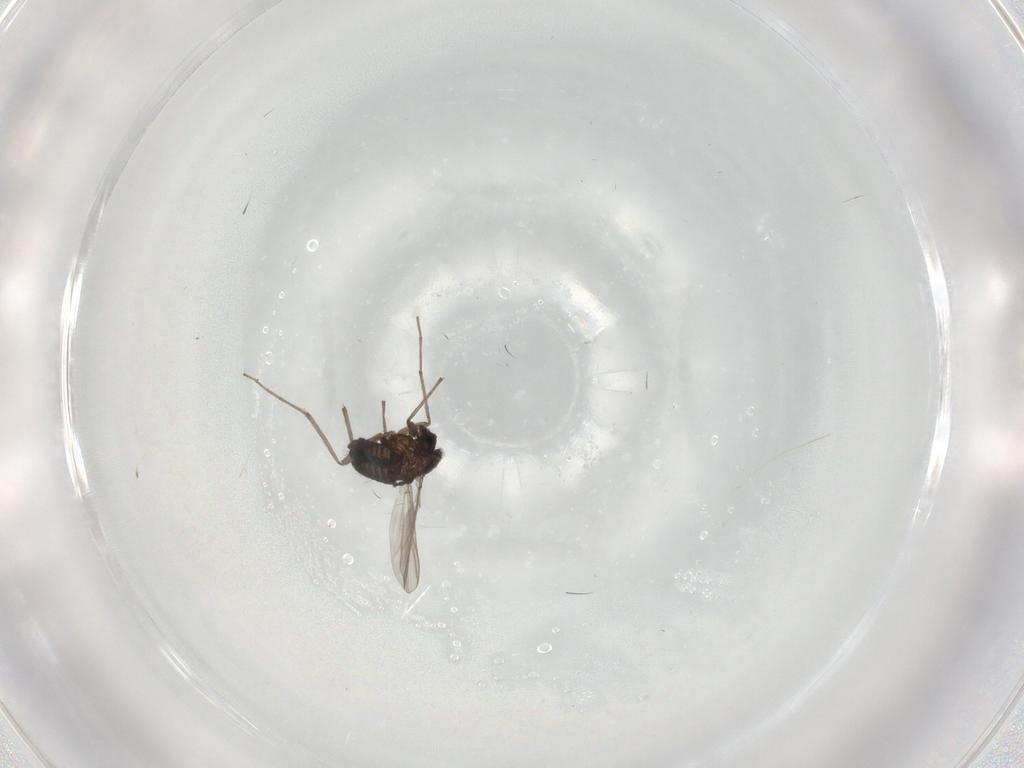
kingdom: Animalia
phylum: Arthropoda
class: Insecta
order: Diptera
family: Chironomidae
